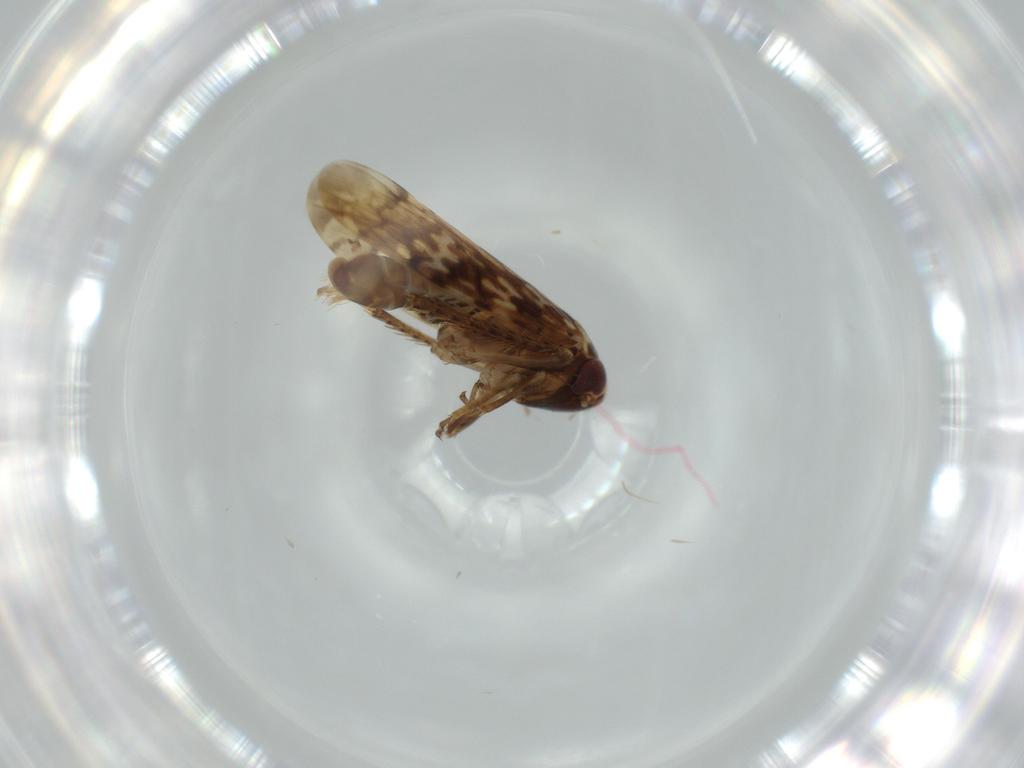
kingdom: Animalia
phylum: Arthropoda
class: Insecta
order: Hemiptera
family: Cicadellidae
